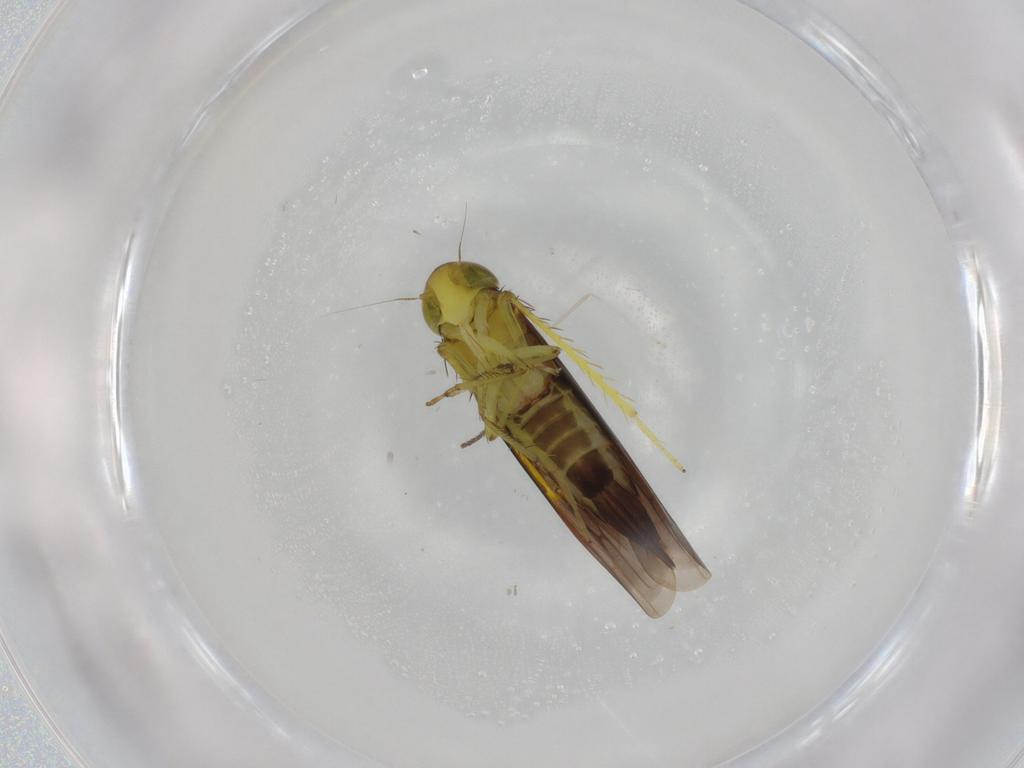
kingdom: Animalia
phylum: Arthropoda
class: Insecta
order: Hemiptera
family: Cicadellidae
